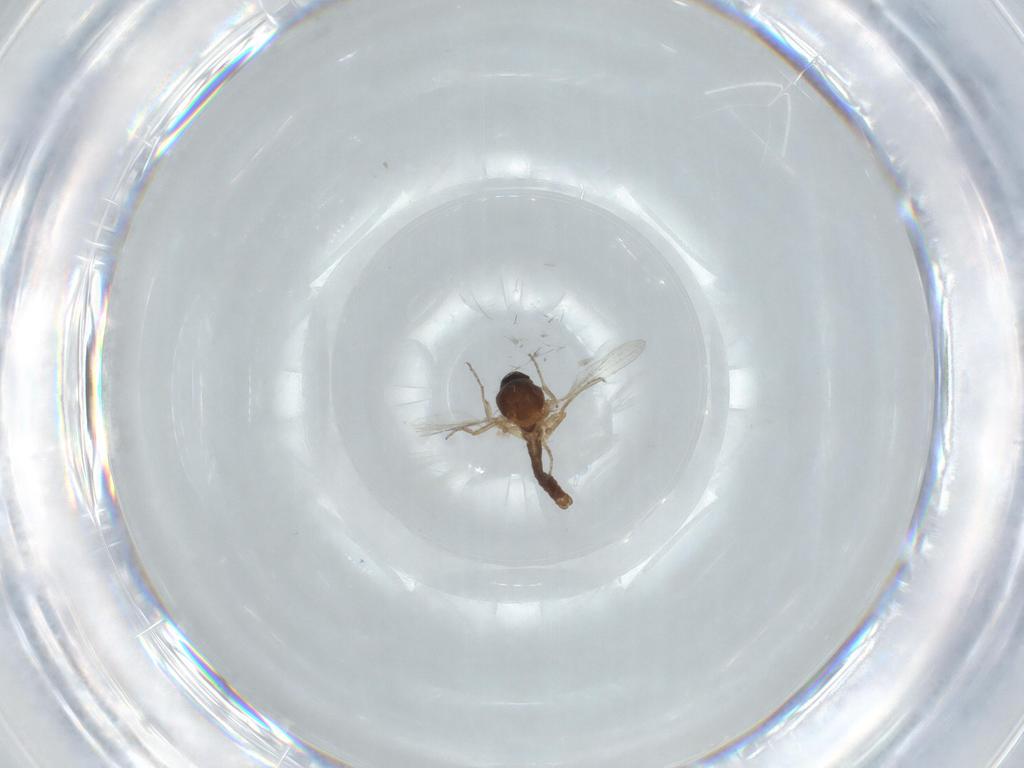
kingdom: Animalia
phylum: Arthropoda
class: Insecta
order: Diptera
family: Ceratopogonidae
